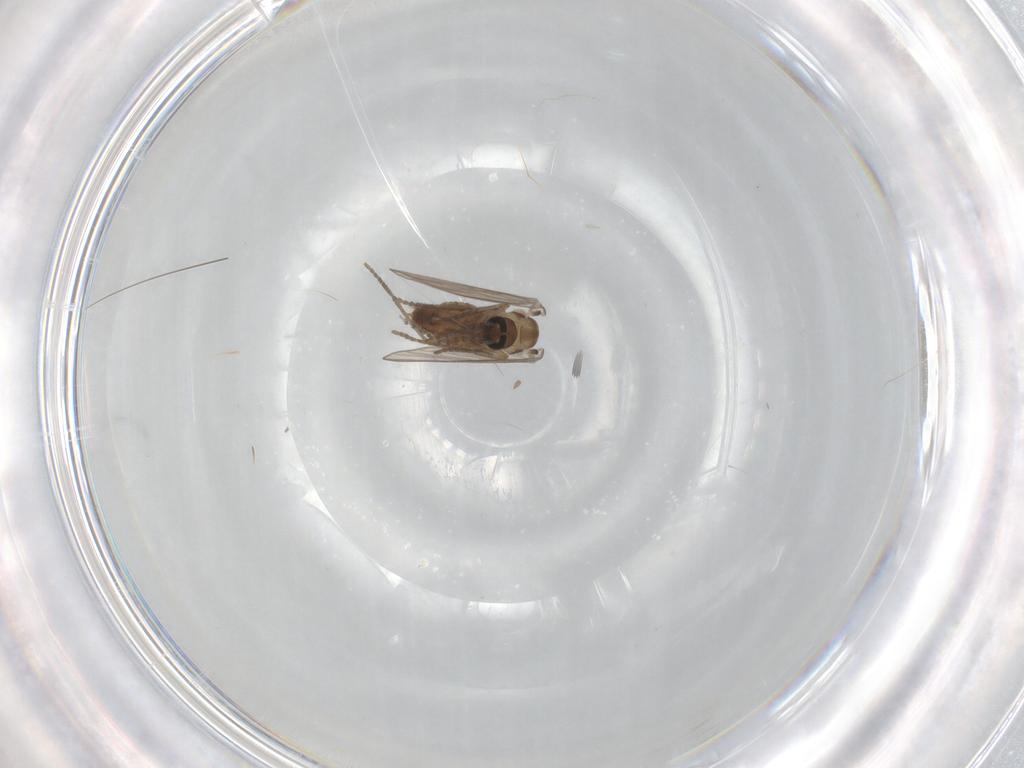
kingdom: Animalia
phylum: Arthropoda
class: Insecta
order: Diptera
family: Psychodidae
